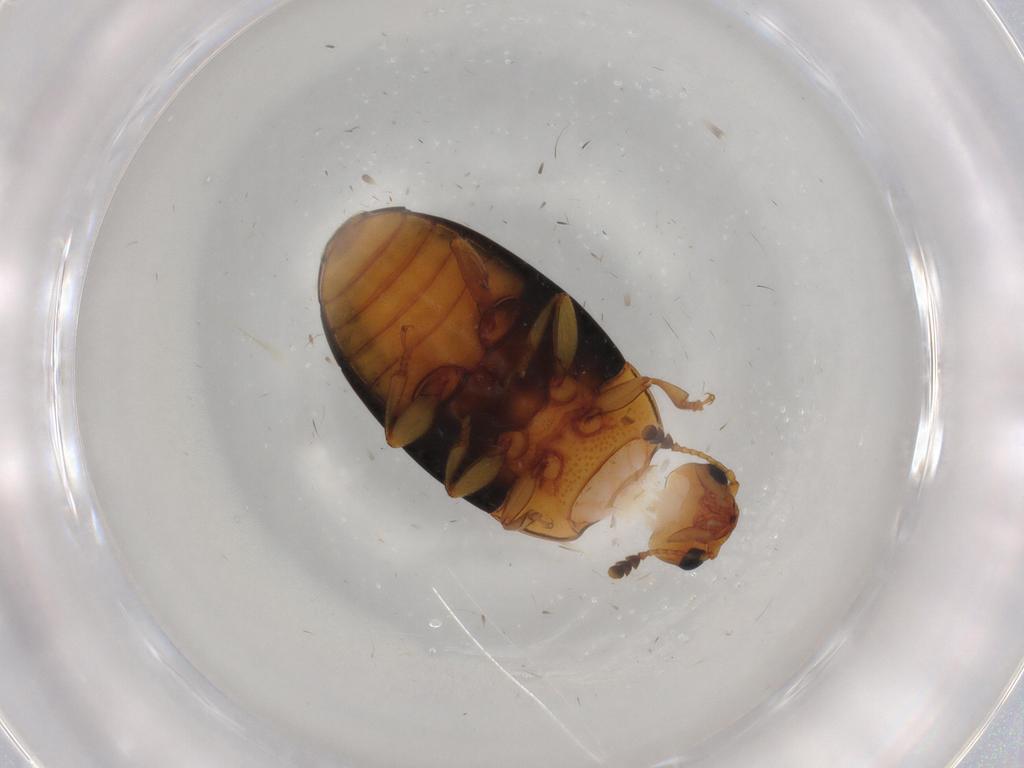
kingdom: Animalia
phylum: Arthropoda
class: Insecta
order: Coleoptera
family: Erotylidae
